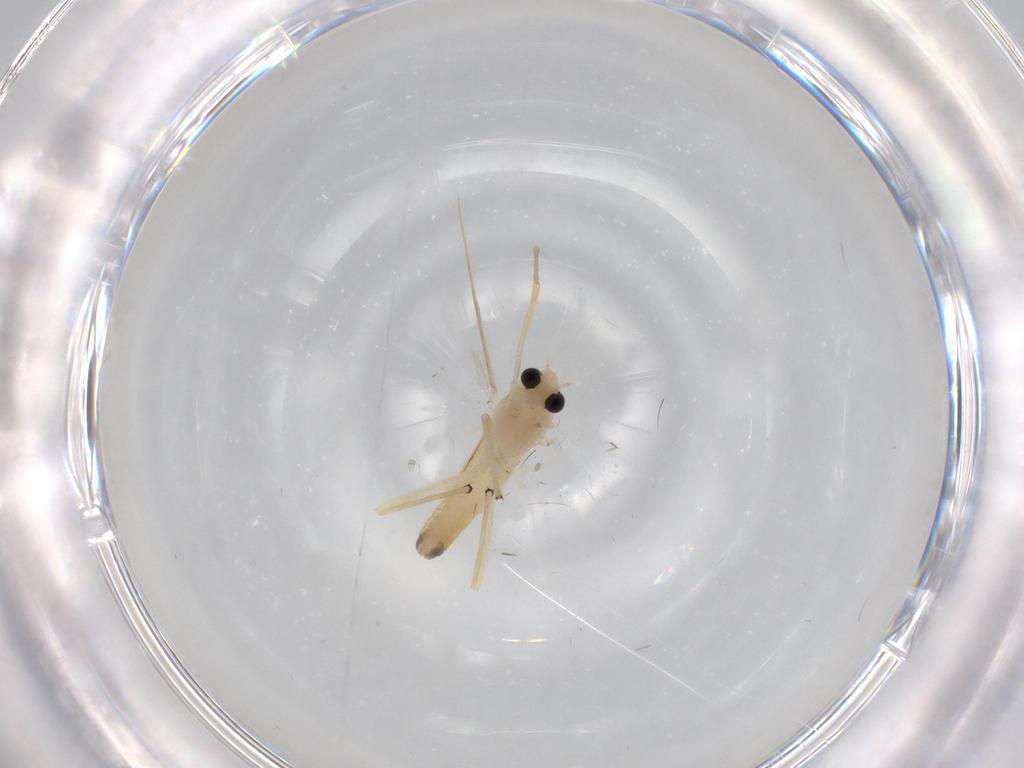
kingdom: Animalia
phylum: Arthropoda
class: Insecta
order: Diptera
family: Chironomidae
